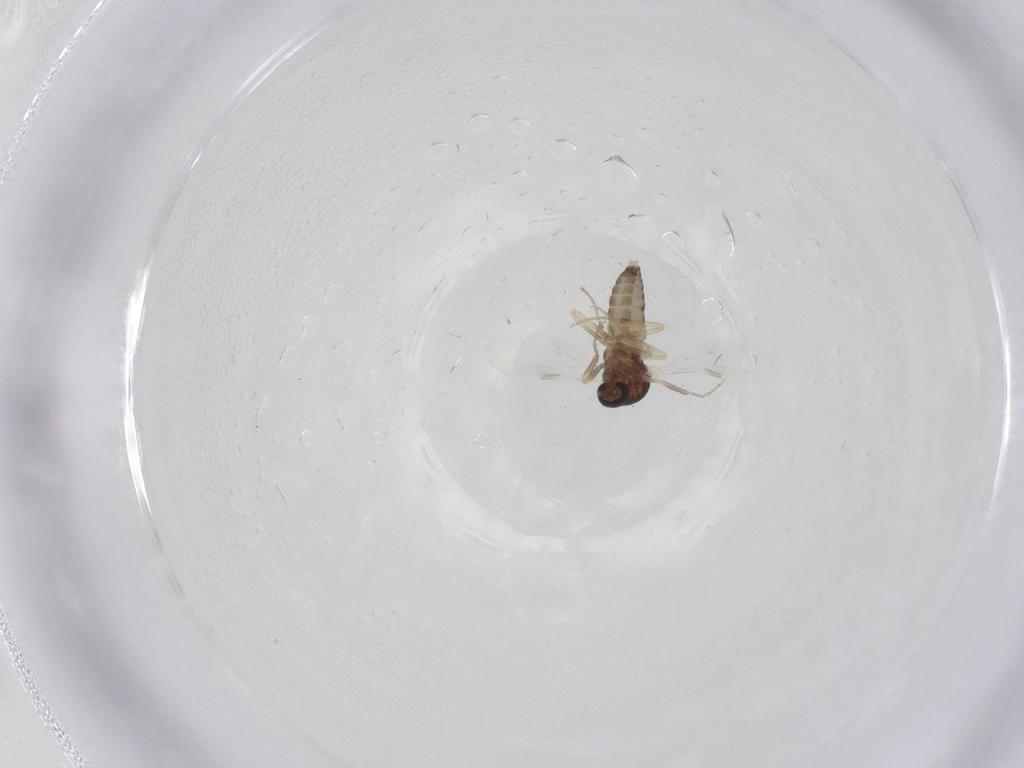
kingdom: Animalia
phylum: Arthropoda
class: Insecta
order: Diptera
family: Ceratopogonidae
